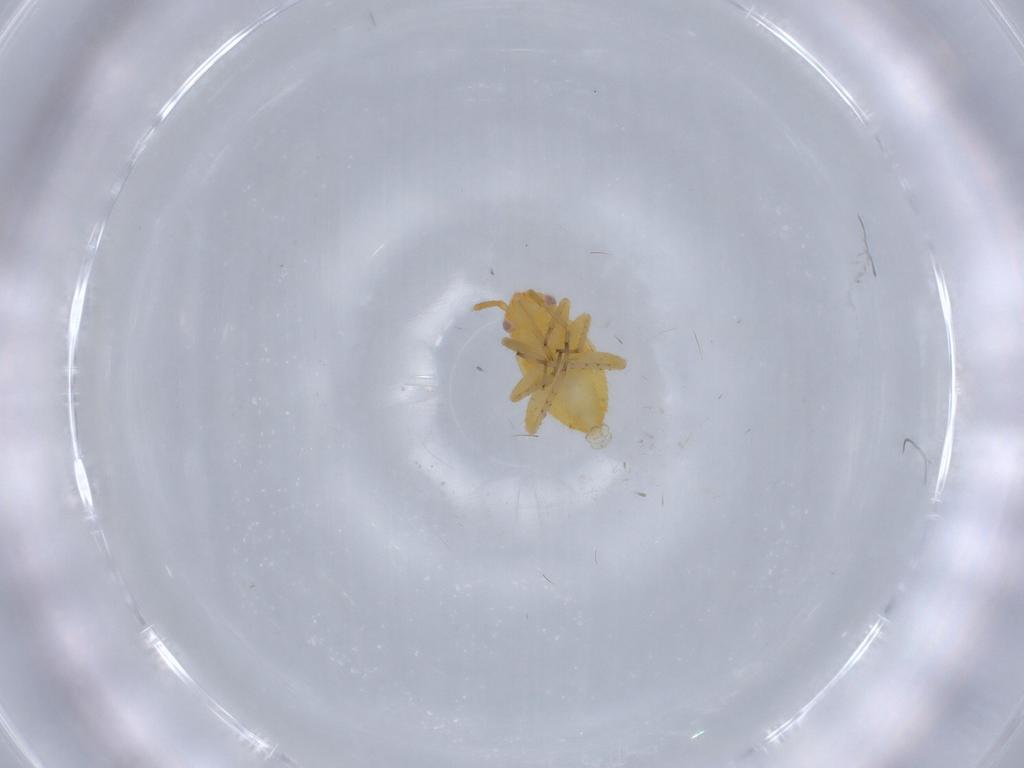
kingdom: Animalia
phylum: Arthropoda
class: Insecta
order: Hemiptera
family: Miridae
